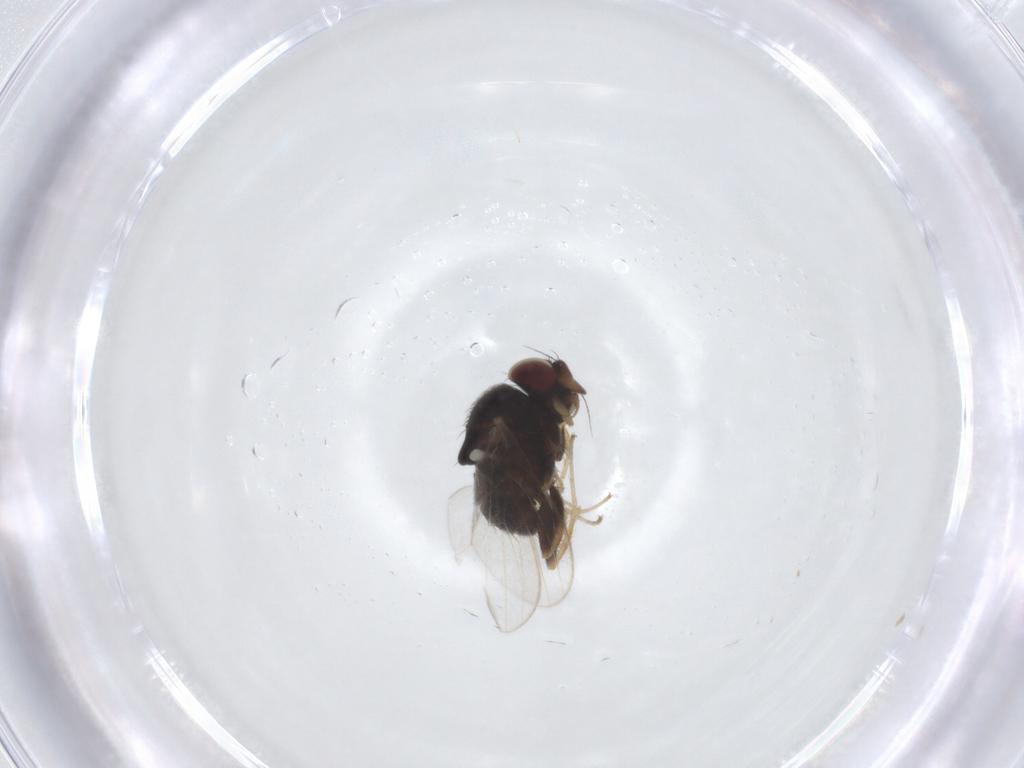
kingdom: Animalia
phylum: Arthropoda
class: Insecta
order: Diptera
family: Milichiidae
